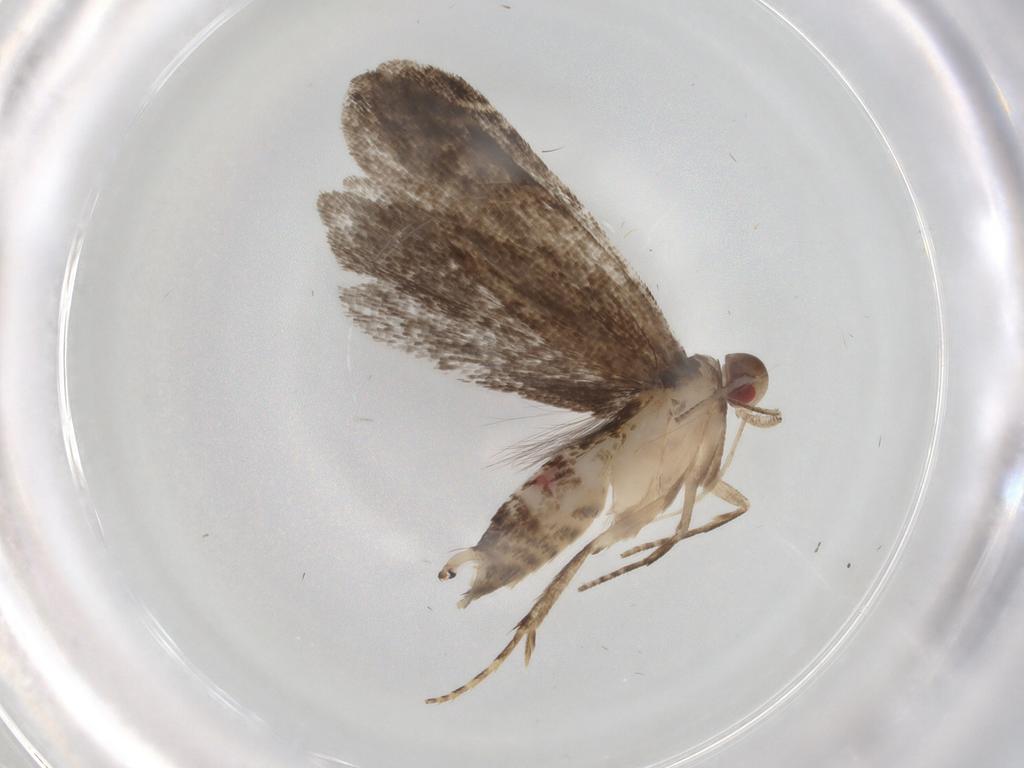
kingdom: Animalia
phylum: Arthropoda
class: Insecta
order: Lepidoptera
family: Gelechiidae
